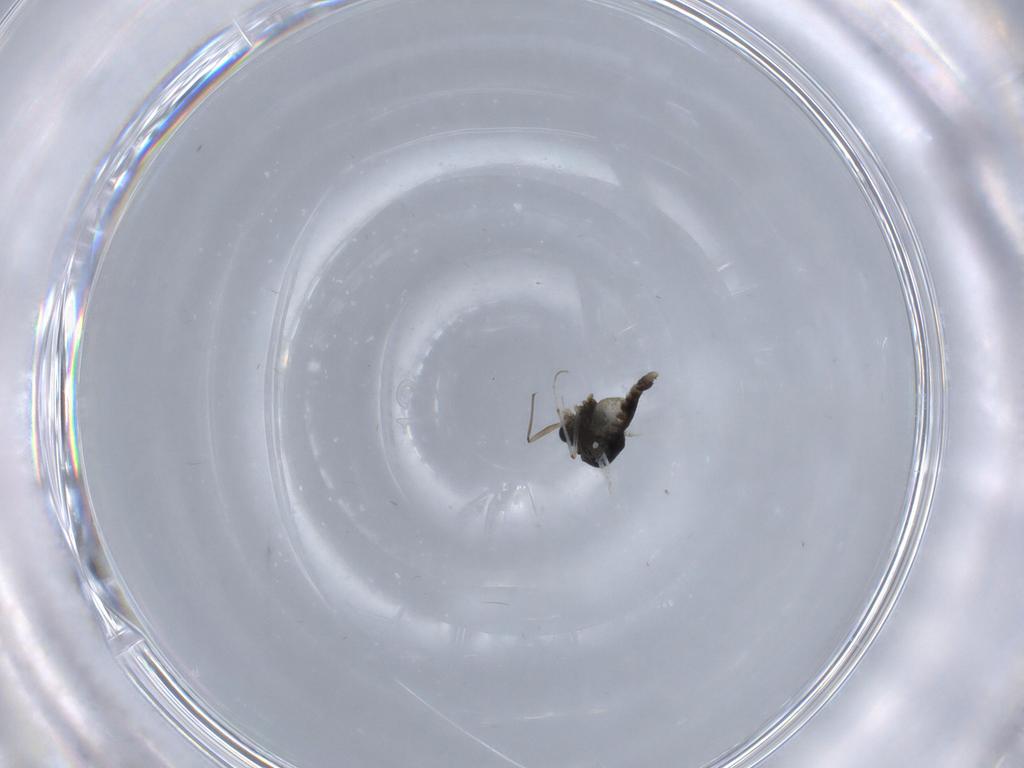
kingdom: Animalia
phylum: Arthropoda
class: Insecta
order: Diptera
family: Chironomidae
